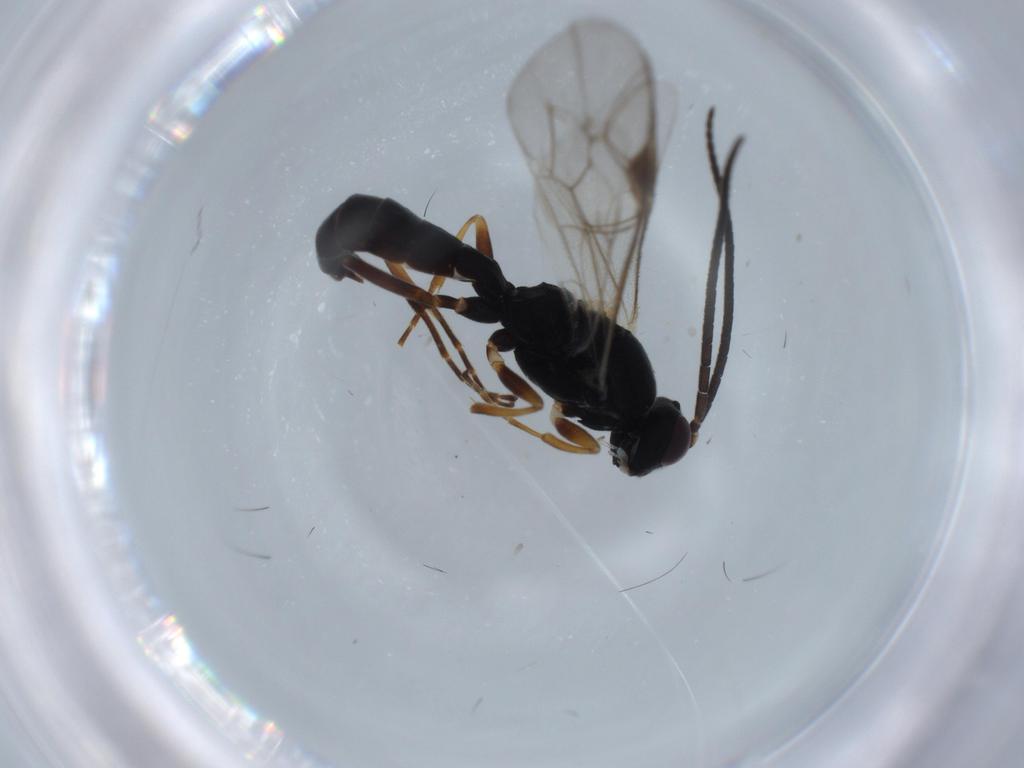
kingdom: Animalia
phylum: Arthropoda
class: Insecta
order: Hymenoptera
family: Ichneumonidae
